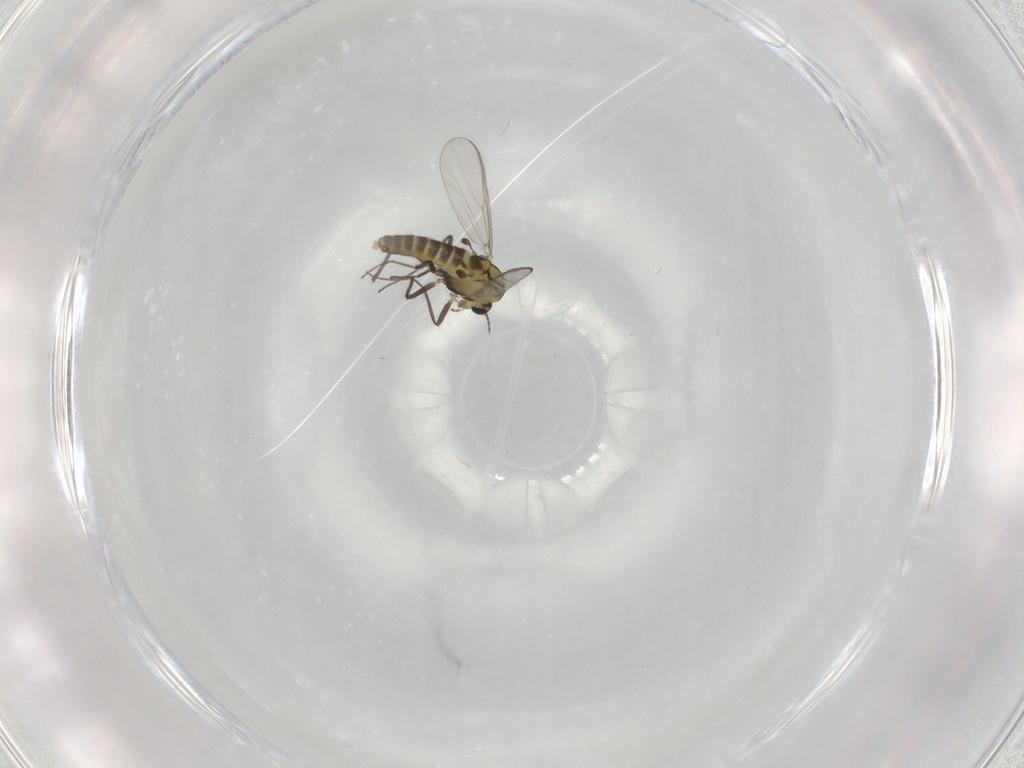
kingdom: Animalia
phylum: Arthropoda
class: Insecta
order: Diptera
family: Chironomidae
